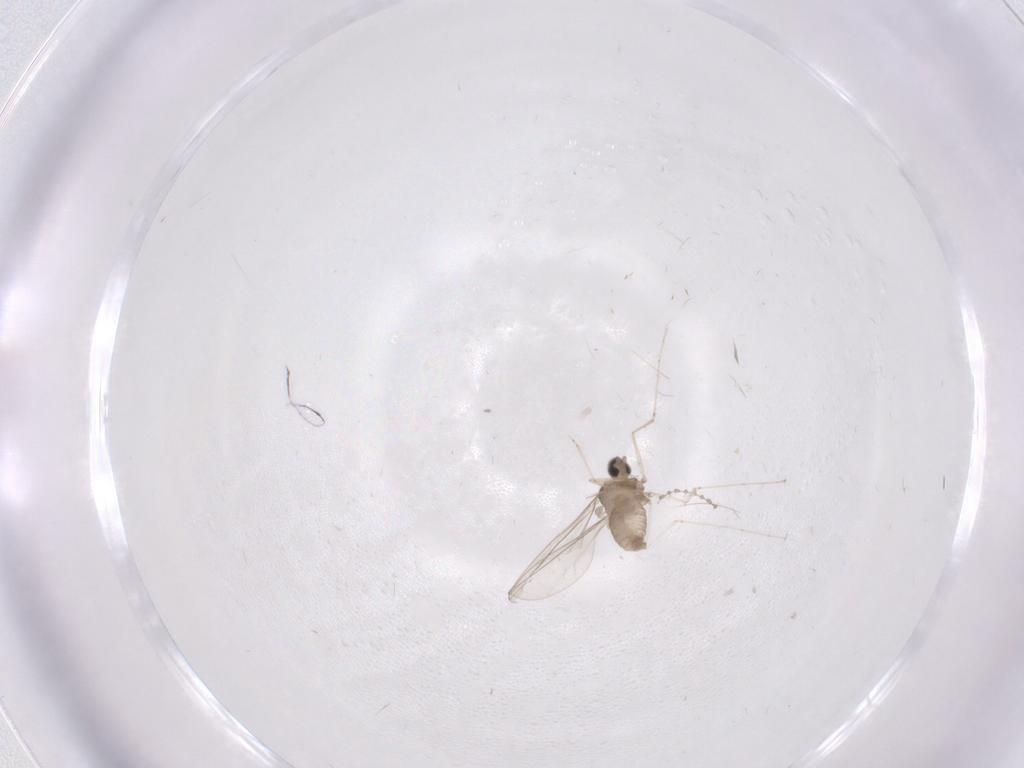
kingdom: Animalia
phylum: Arthropoda
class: Insecta
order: Diptera
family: Cecidomyiidae
